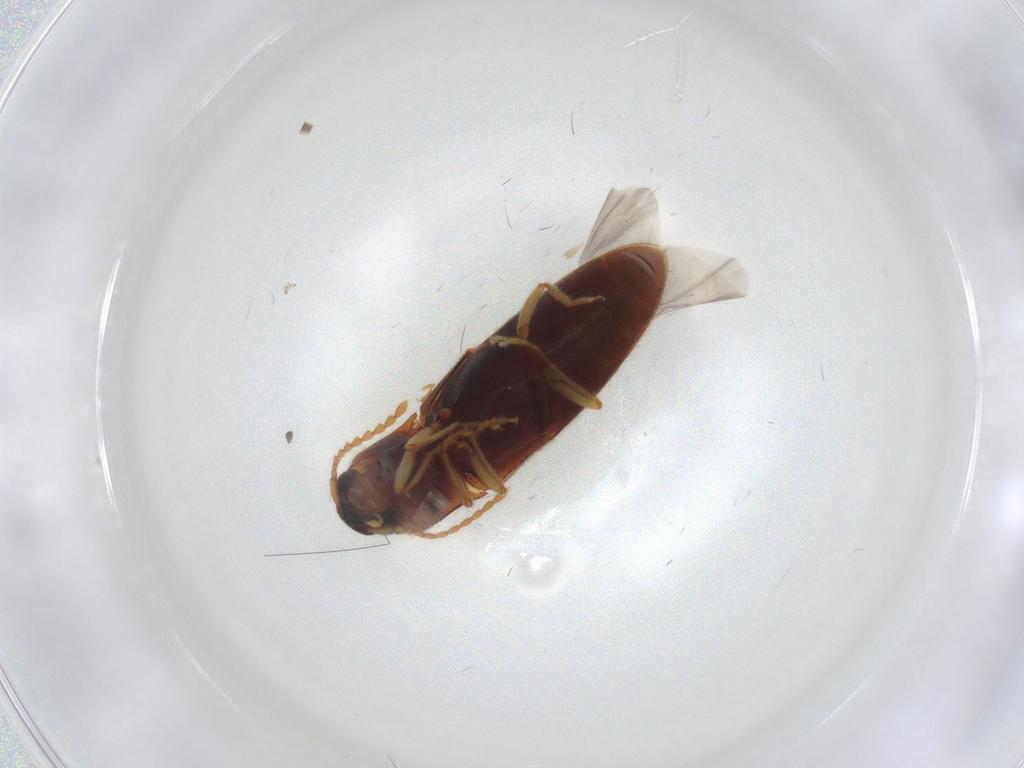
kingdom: Animalia
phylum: Arthropoda
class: Insecta
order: Coleoptera
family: Elateridae
